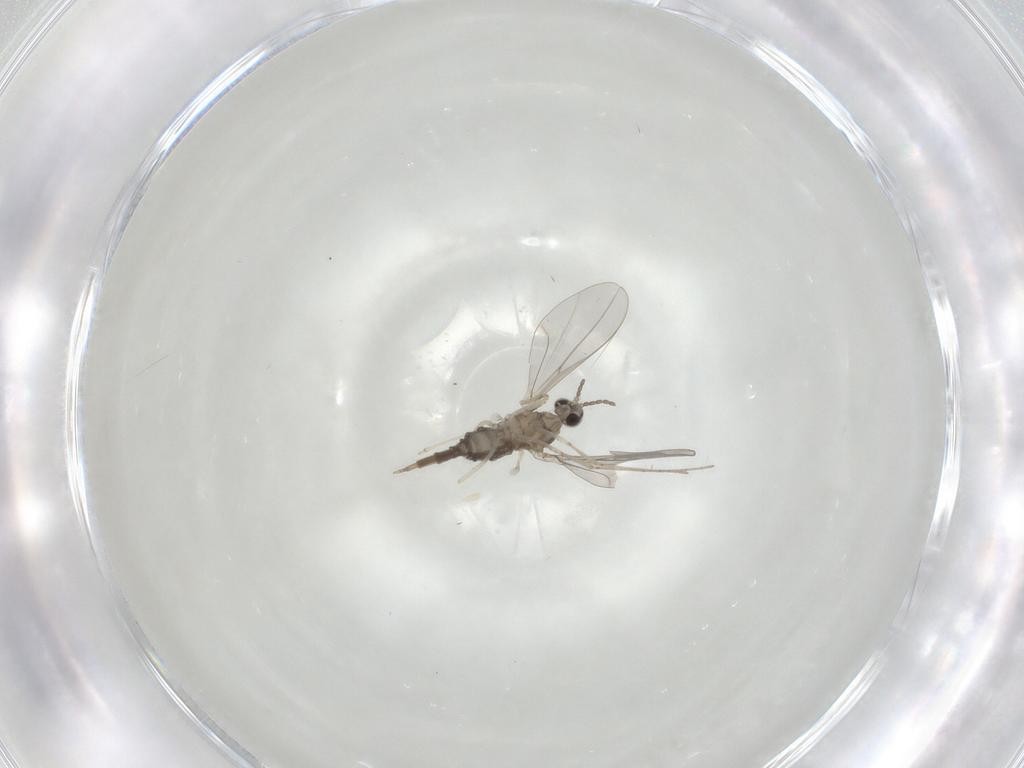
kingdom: Animalia
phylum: Arthropoda
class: Insecta
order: Diptera
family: Cecidomyiidae
